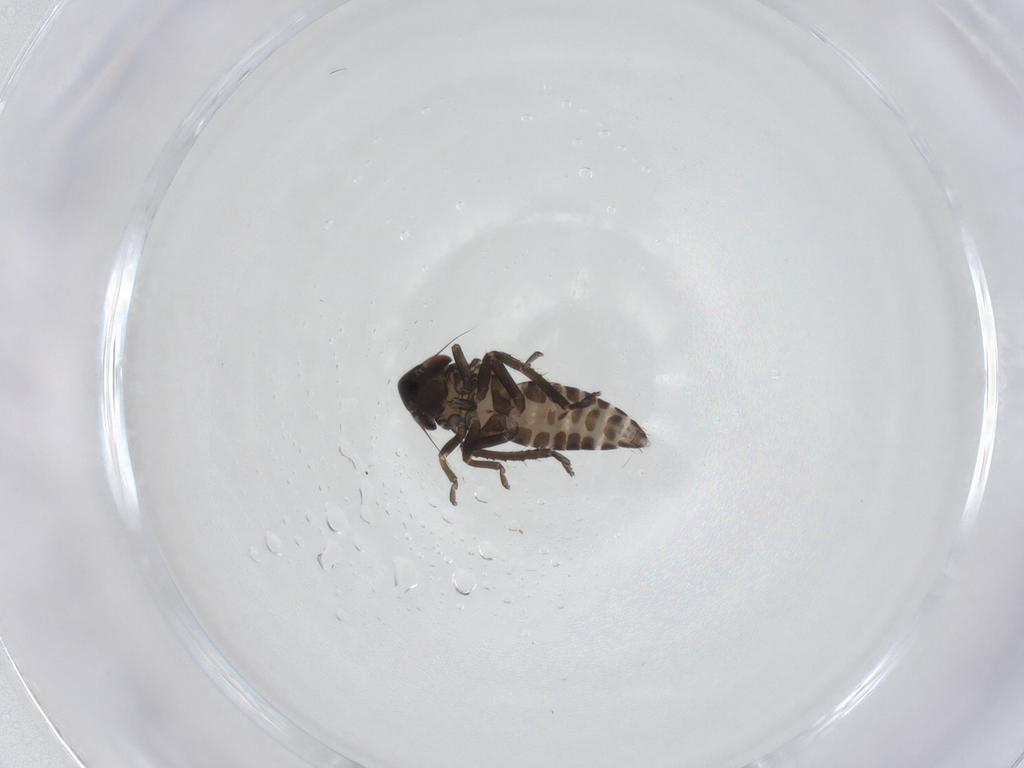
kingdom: Animalia
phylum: Arthropoda
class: Insecta
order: Hemiptera
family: Cicadellidae
